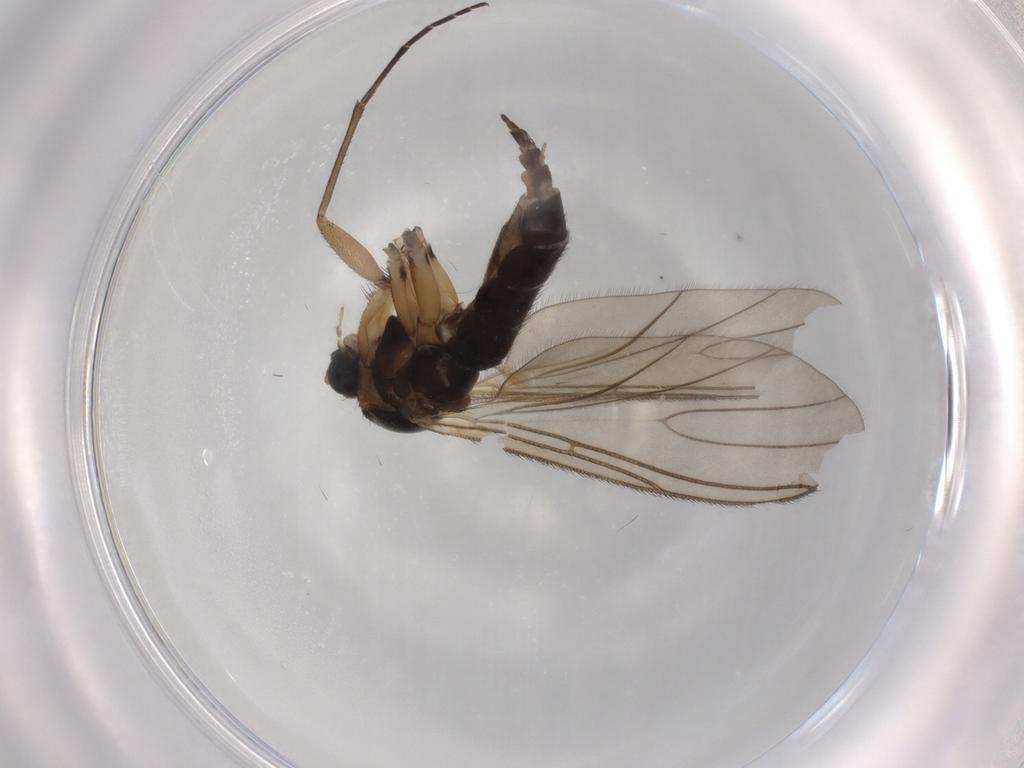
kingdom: Animalia
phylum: Arthropoda
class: Insecta
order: Diptera
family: Sciaridae
